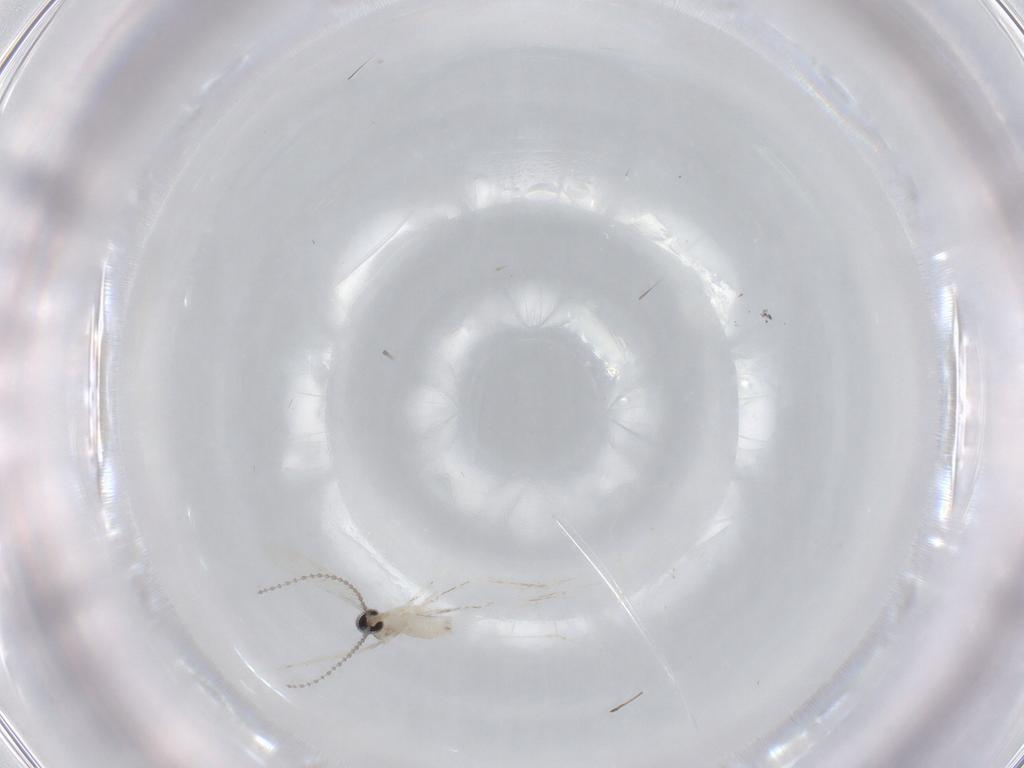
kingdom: Animalia
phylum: Arthropoda
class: Insecta
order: Diptera
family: Cecidomyiidae
